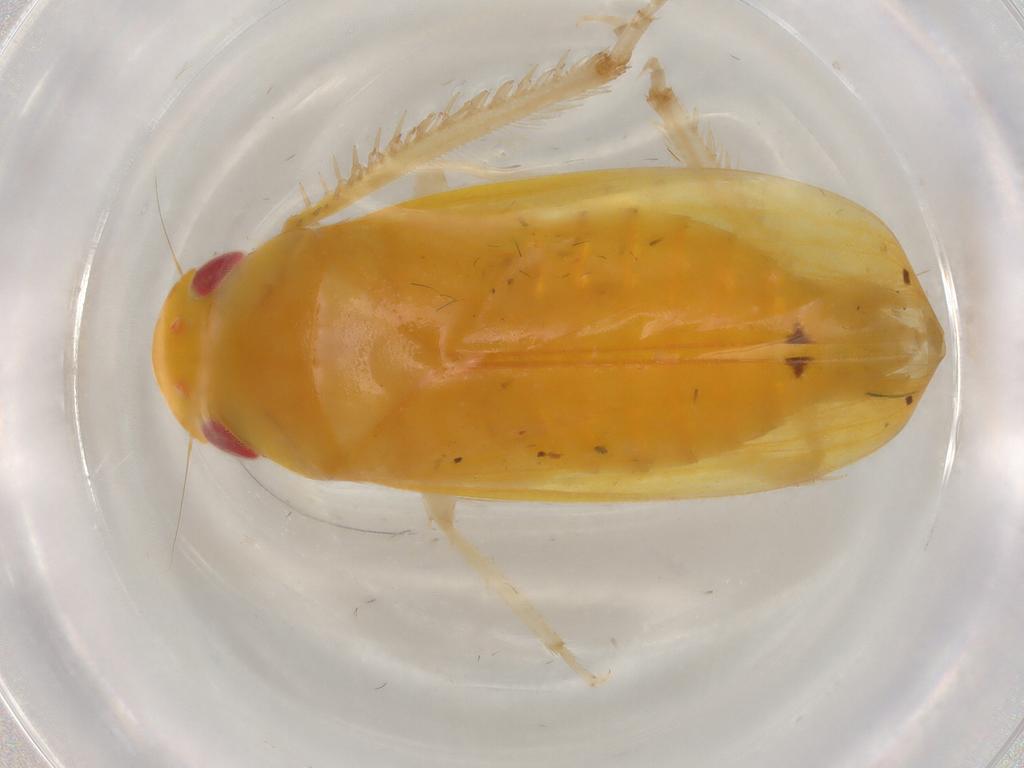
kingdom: Animalia
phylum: Arthropoda
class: Insecta
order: Hemiptera
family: Cicadellidae
